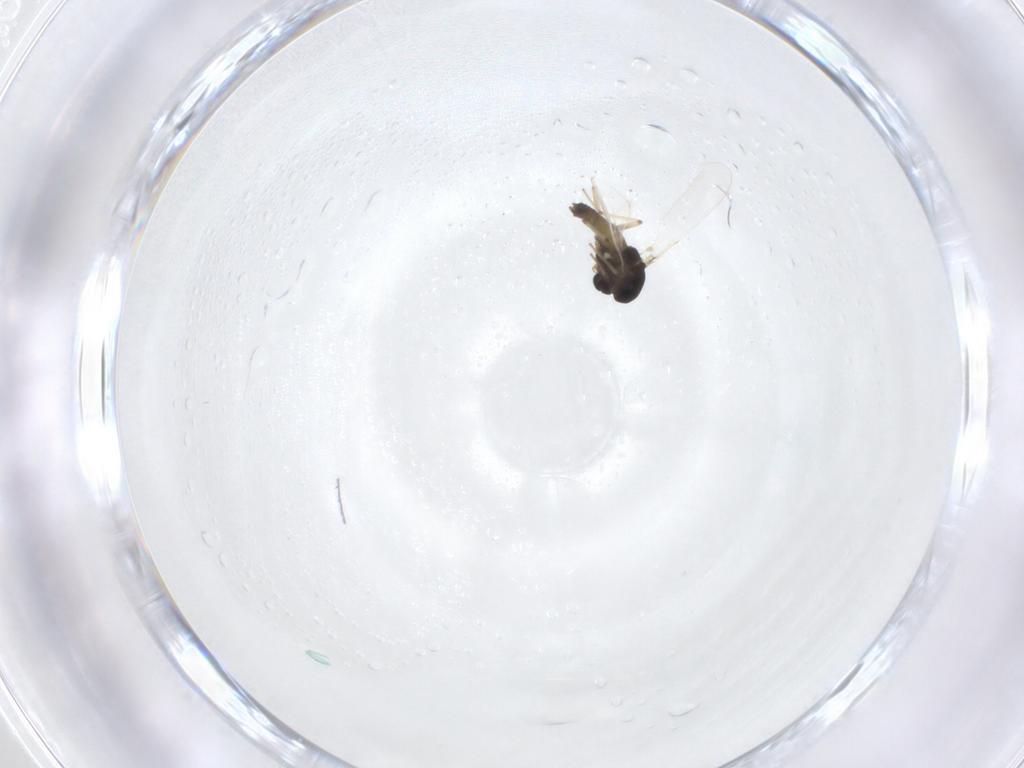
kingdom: Animalia
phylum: Arthropoda
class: Insecta
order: Diptera
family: Chironomidae
